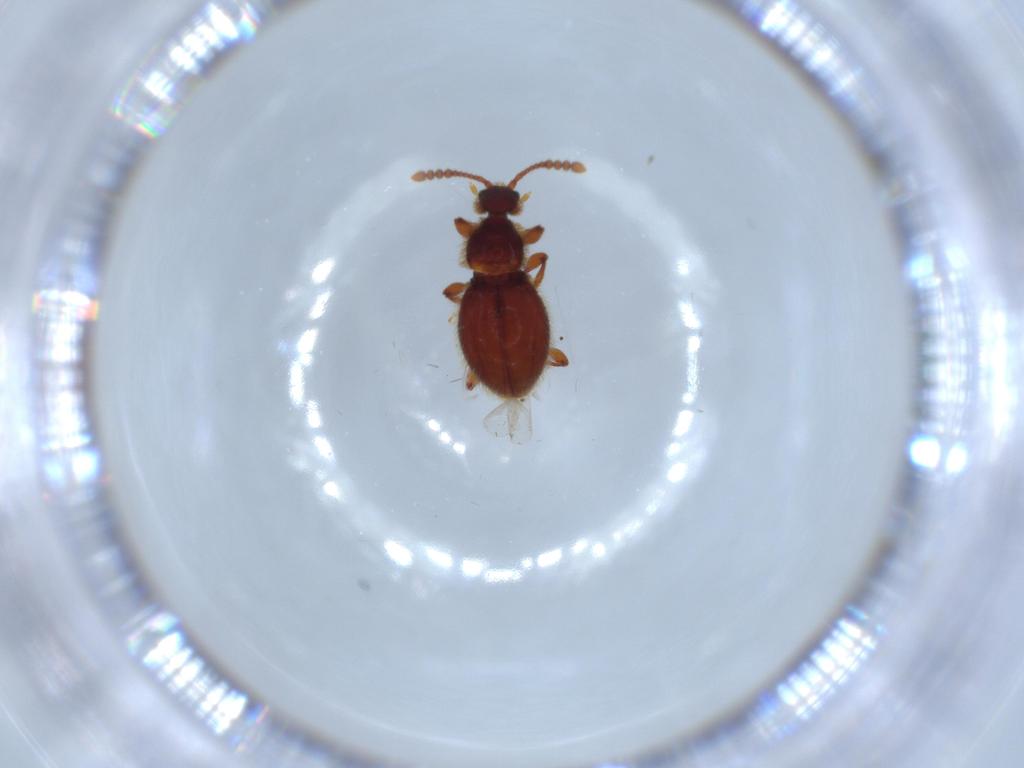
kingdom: Animalia
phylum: Arthropoda
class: Insecta
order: Coleoptera
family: Curculionidae
